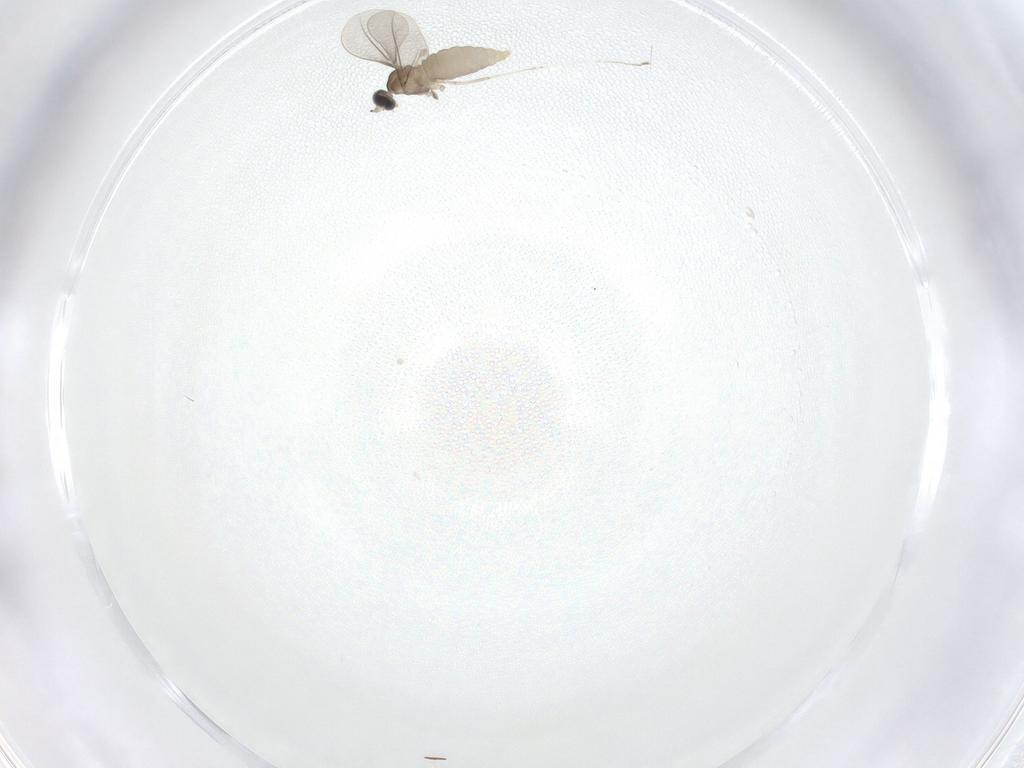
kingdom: Animalia
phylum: Arthropoda
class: Insecta
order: Diptera
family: Cecidomyiidae
